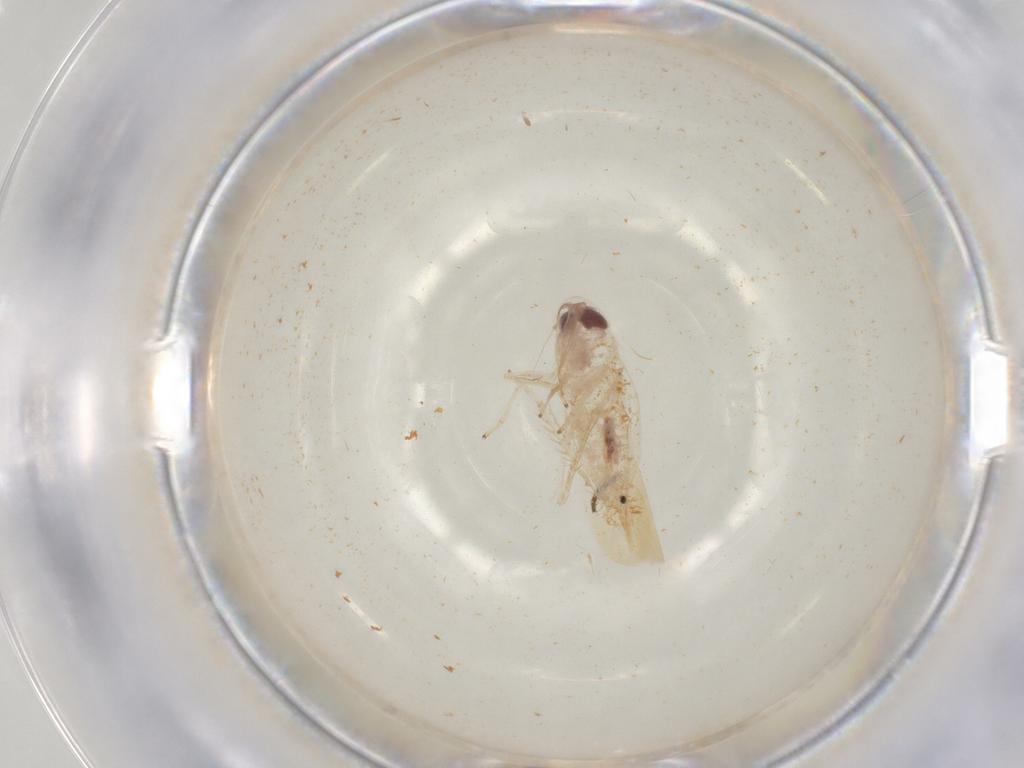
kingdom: Animalia
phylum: Arthropoda
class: Insecta
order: Diptera
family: Sciaridae
